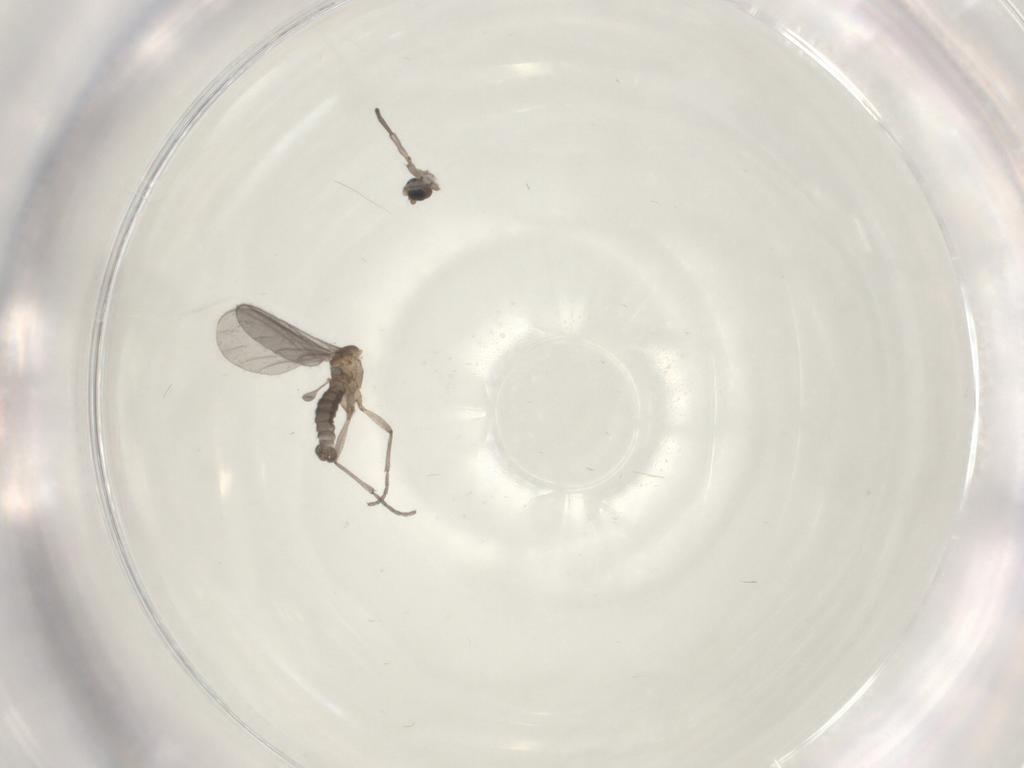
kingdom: Animalia
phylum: Arthropoda
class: Insecta
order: Diptera
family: Sciaridae
